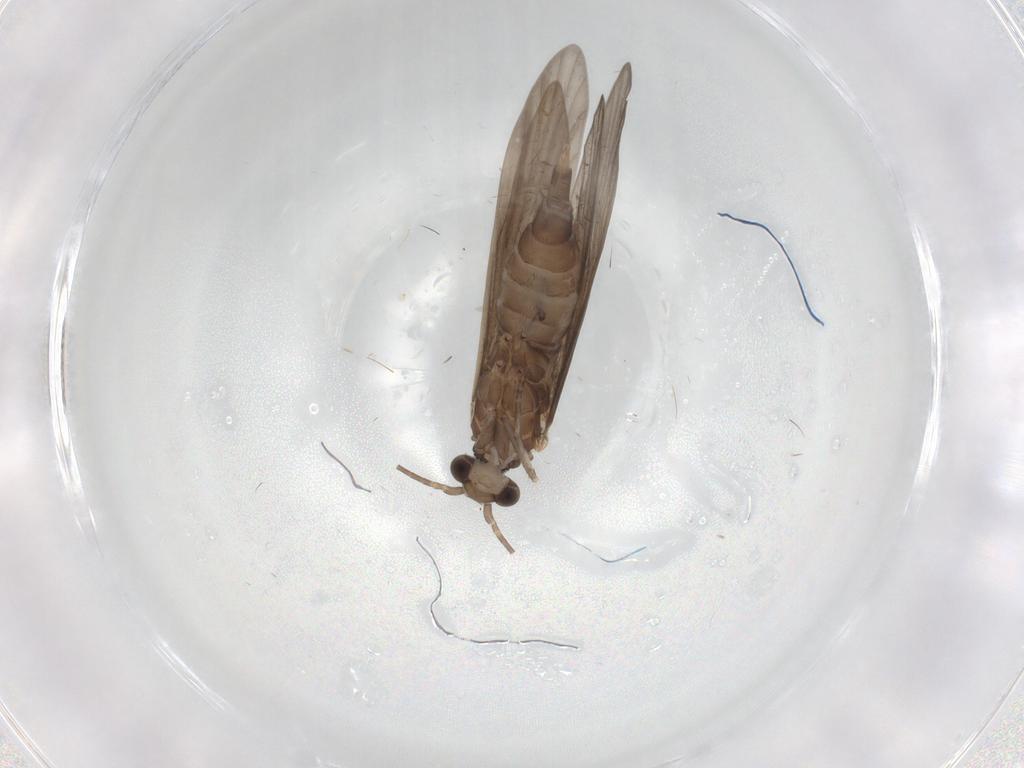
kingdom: Animalia
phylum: Arthropoda
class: Insecta
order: Trichoptera
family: Xiphocentronidae
